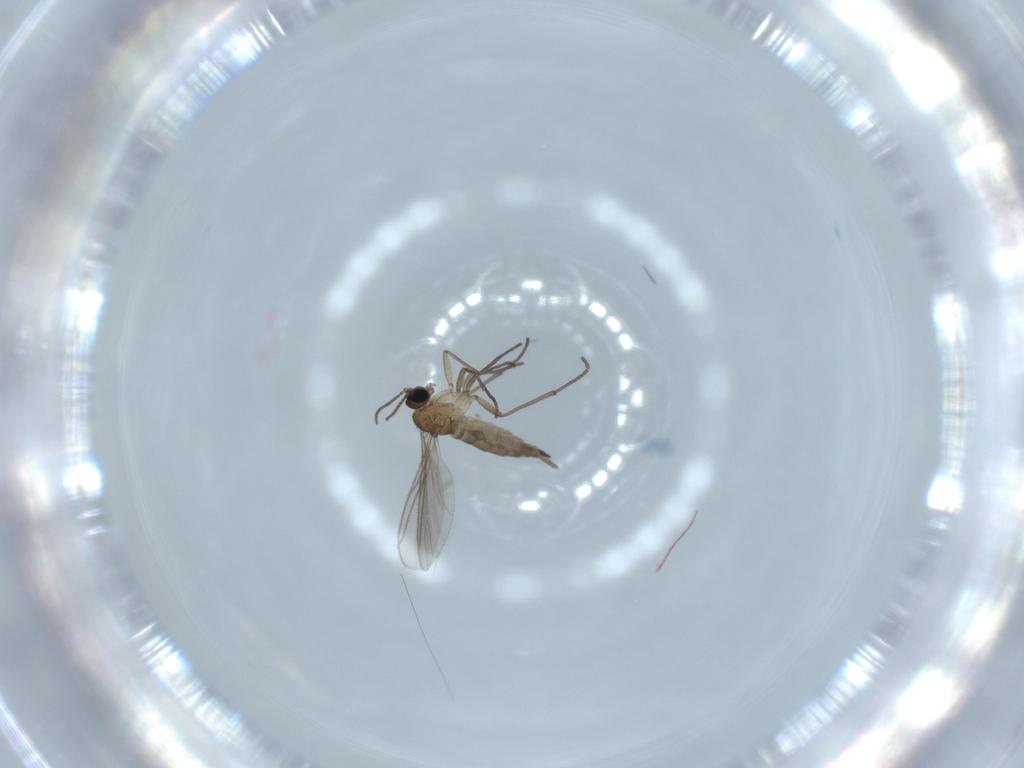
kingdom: Animalia
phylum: Arthropoda
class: Insecta
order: Diptera
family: Sciaridae
